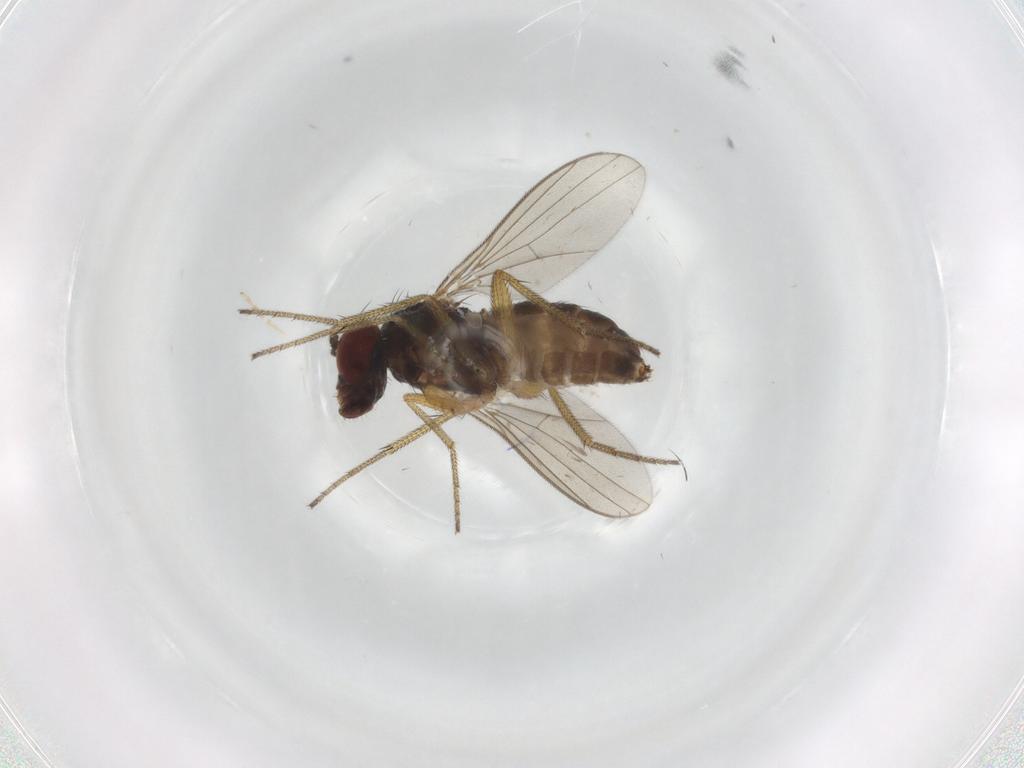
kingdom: Animalia
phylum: Arthropoda
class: Insecta
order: Diptera
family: Chironomidae
